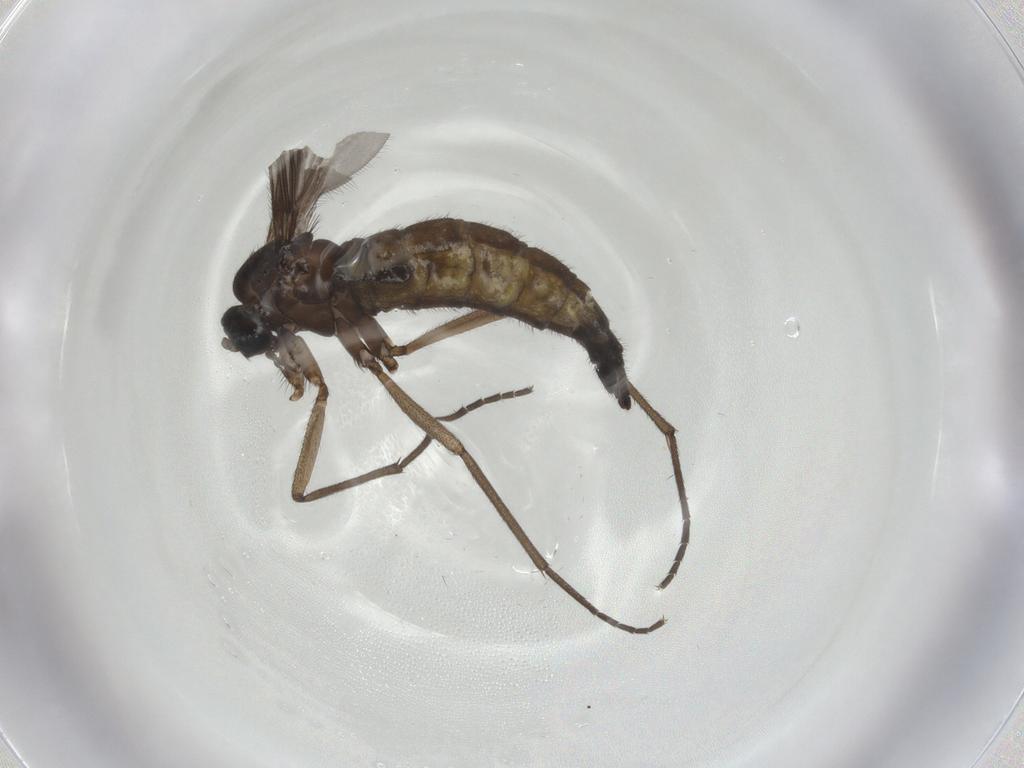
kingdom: Animalia
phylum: Arthropoda
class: Insecta
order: Diptera
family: Sciaridae
